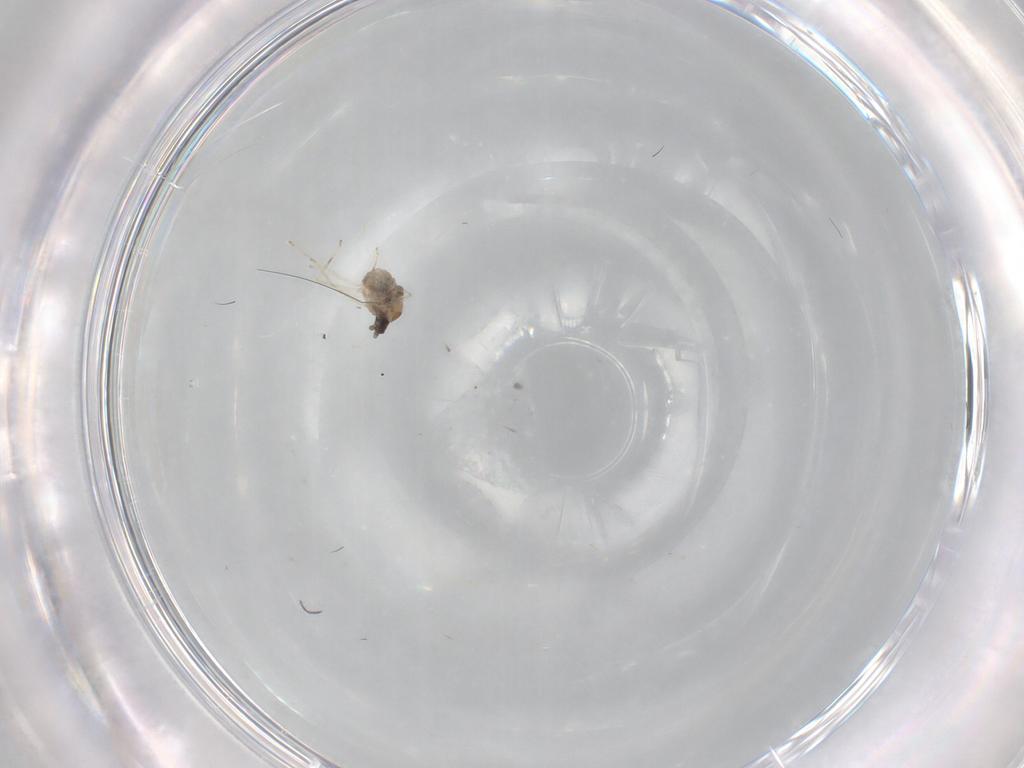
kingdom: Animalia
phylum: Arthropoda
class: Insecta
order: Diptera
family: Cecidomyiidae
